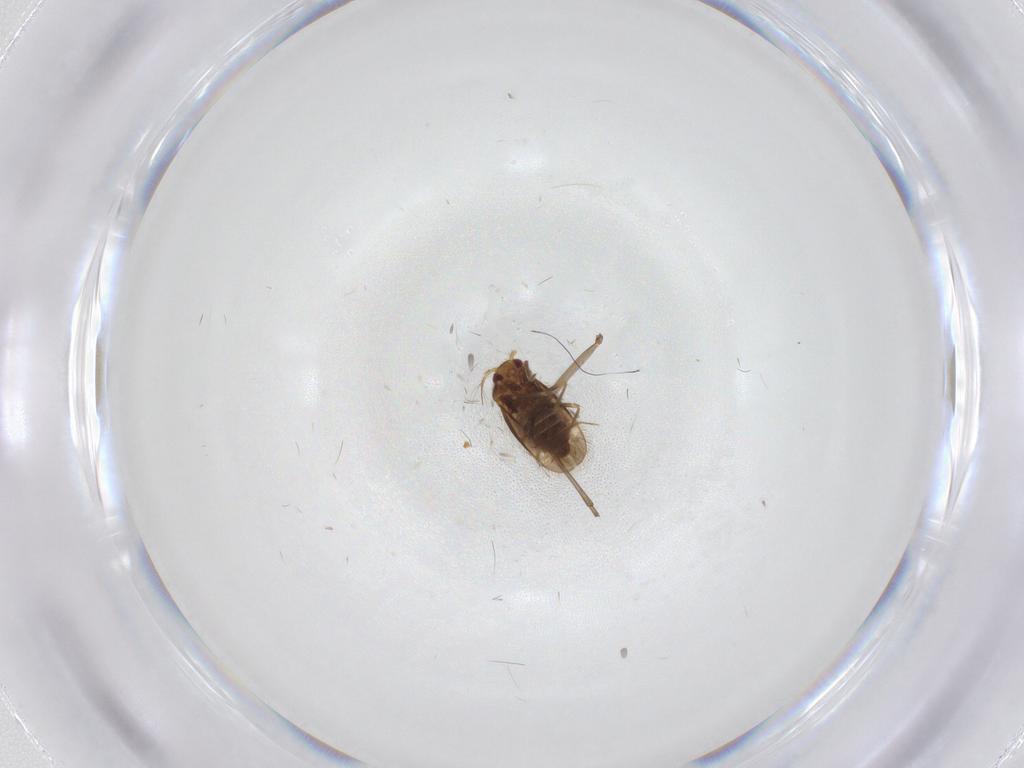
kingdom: Animalia
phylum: Arthropoda
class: Insecta
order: Hemiptera
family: Schizopteridae
